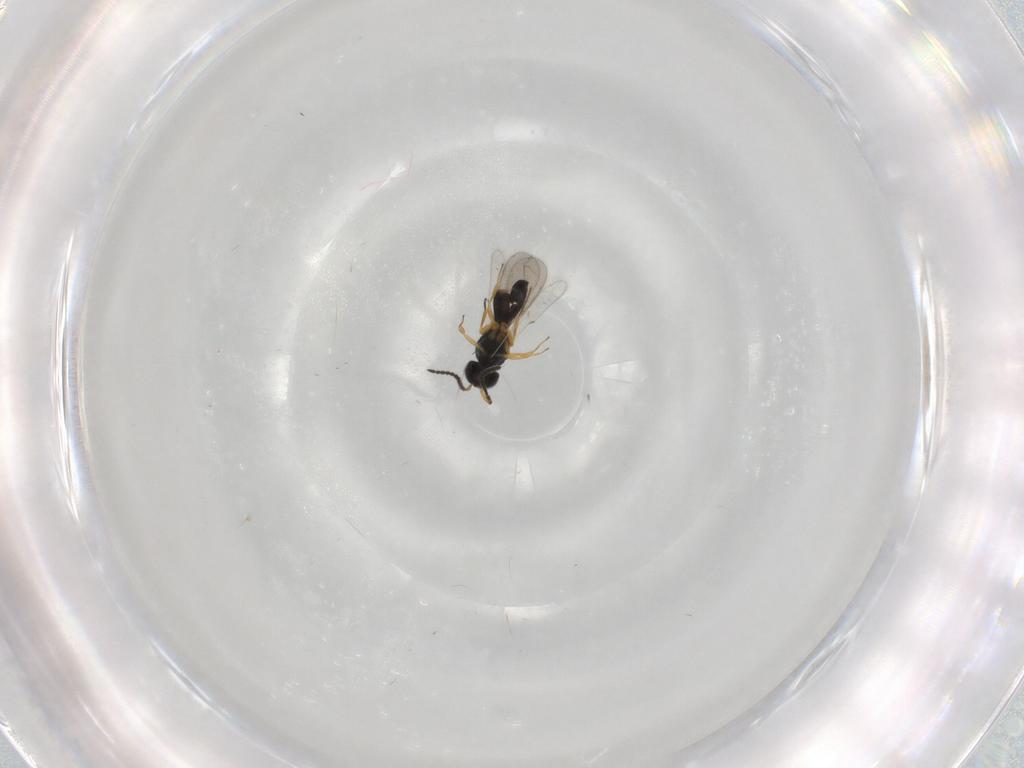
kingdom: Animalia
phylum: Arthropoda
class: Insecta
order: Hymenoptera
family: Scelionidae
